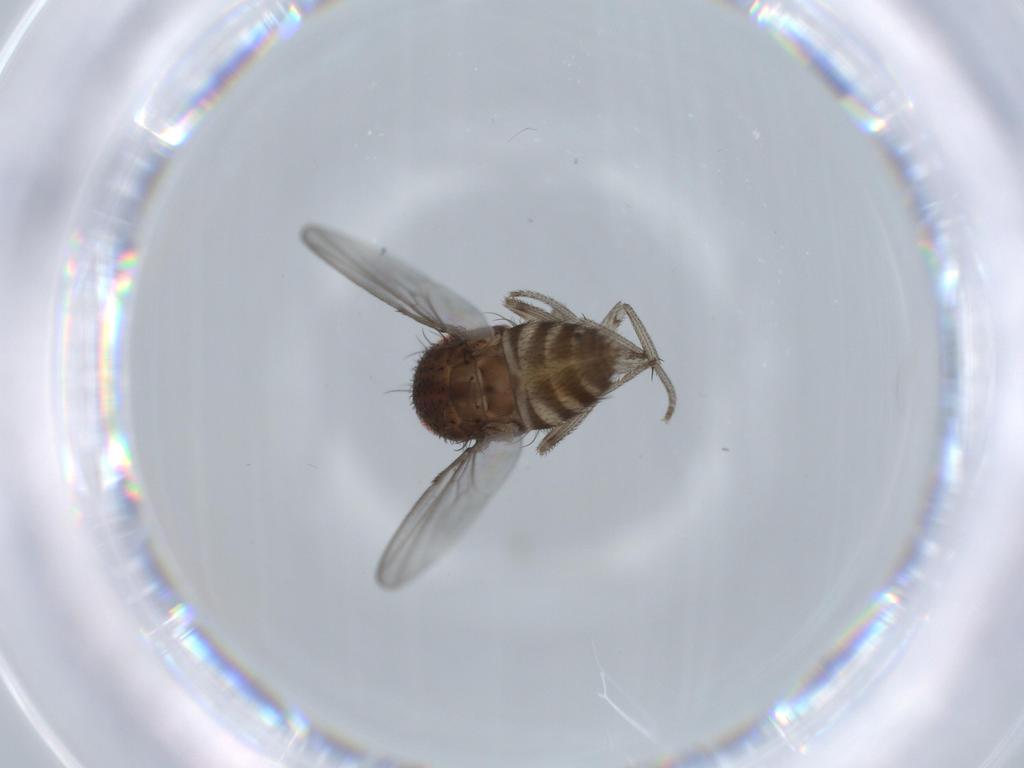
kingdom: Animalia
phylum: Arthropoda
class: Insecta
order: Diptera
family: Drosophilidae
